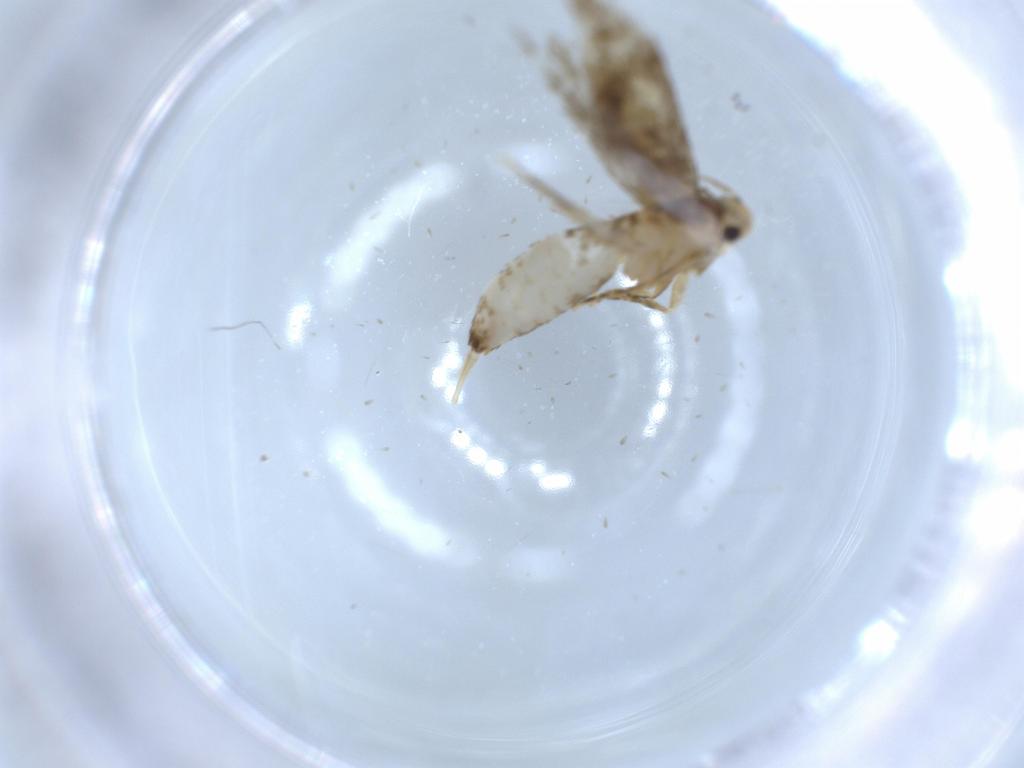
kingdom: Animalia
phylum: Arthropoda
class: Insecta
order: Lepidoptera
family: Tineidae
